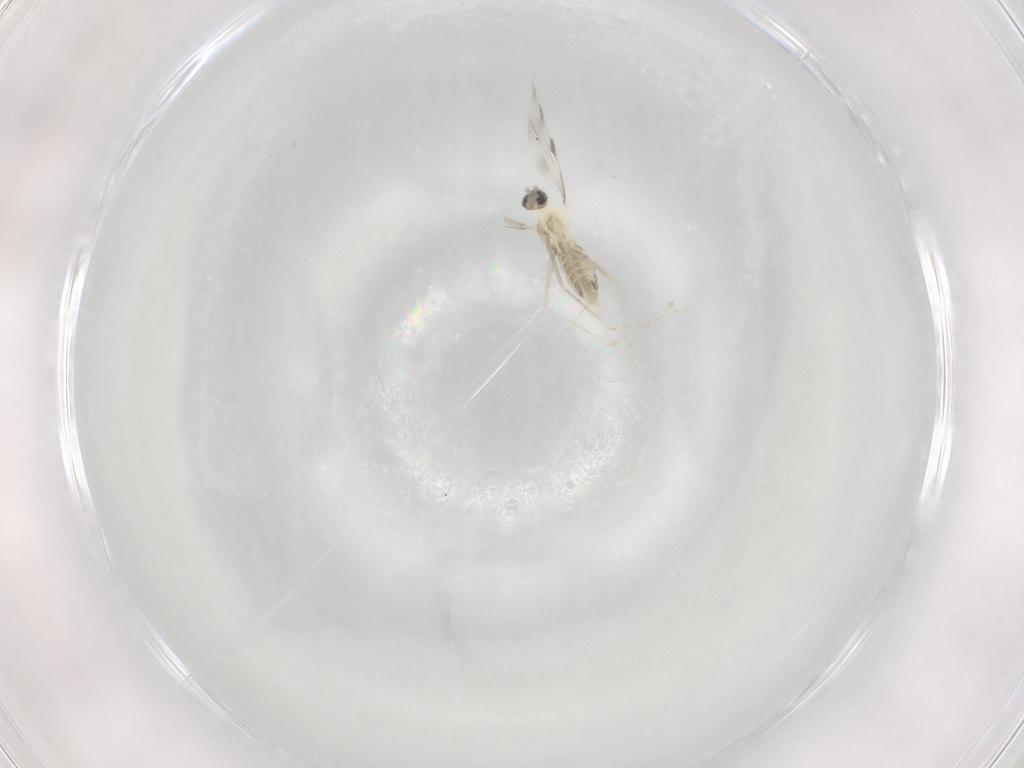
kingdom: Animalia
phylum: Arthropoda
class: Insecta
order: Diptera
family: Cecidomyiidae
